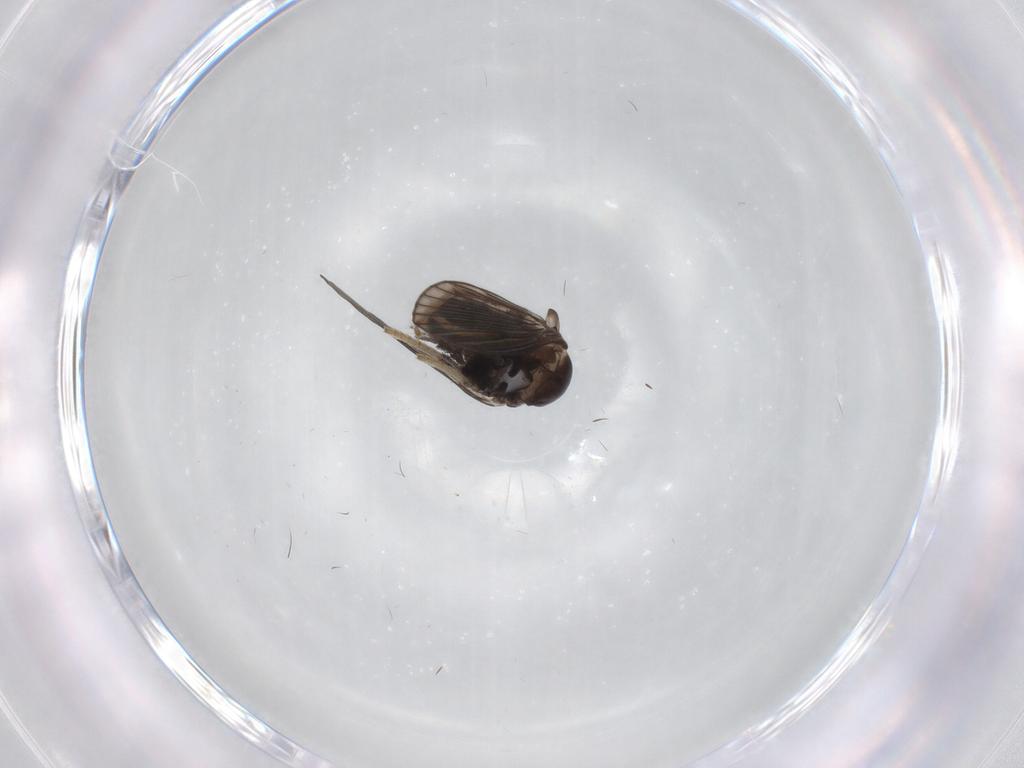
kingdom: Animalia
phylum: Arthropoda
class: Insecta
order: Diptera
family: Psychodidae
